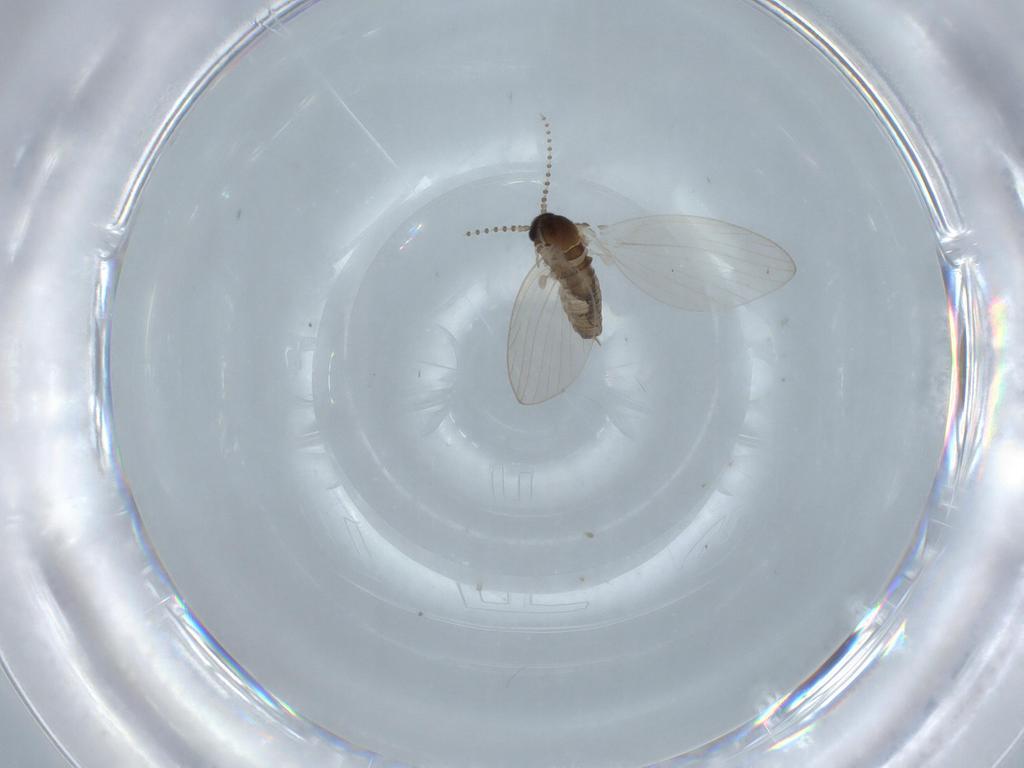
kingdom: Animalia
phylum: Arthropoda
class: Insecta
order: Diptera
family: Psychodidae
